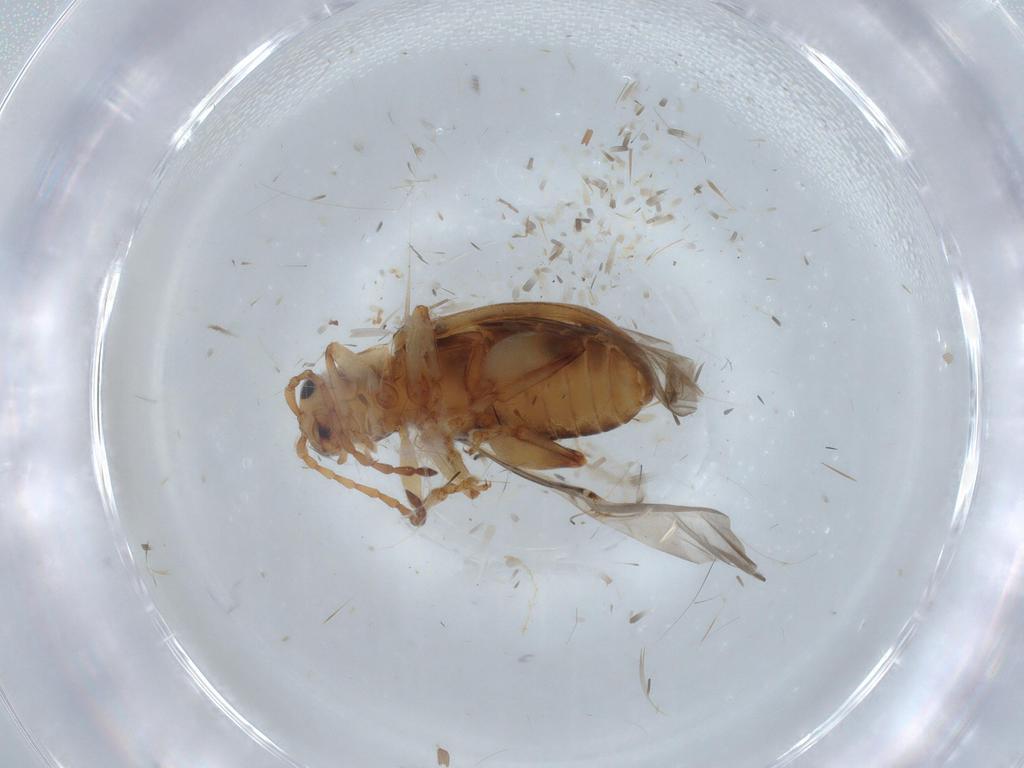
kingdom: Animalia
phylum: Arthropoda
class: Insecta
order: Coleoptera
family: Chrysomelidae
